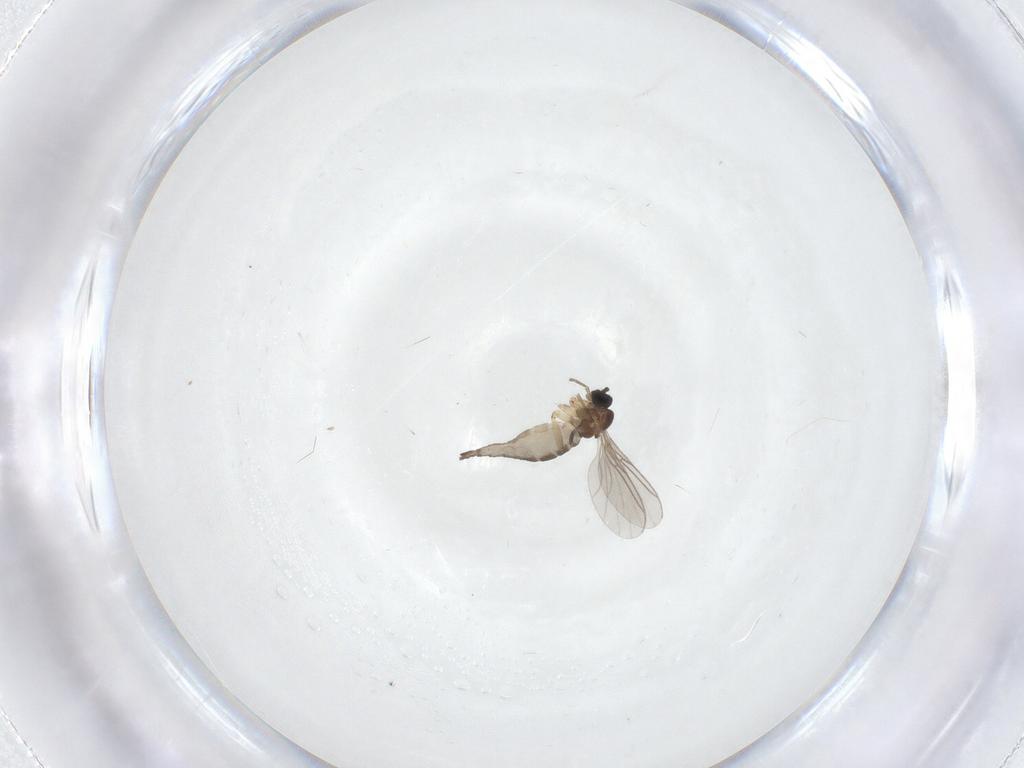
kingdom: Animalia
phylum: Arthropoda
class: Insecta
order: Diptera
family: Sciaridae
